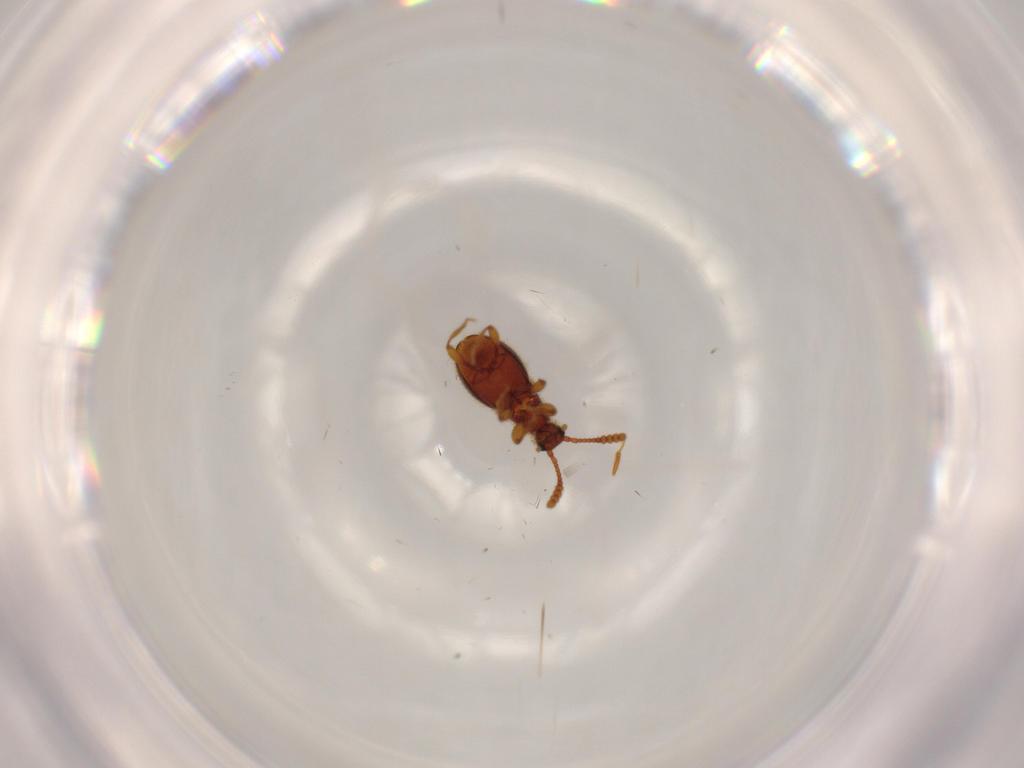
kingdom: Animalia
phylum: Arthropoda
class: Insecta
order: Coleoptera
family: Staphylinidae
